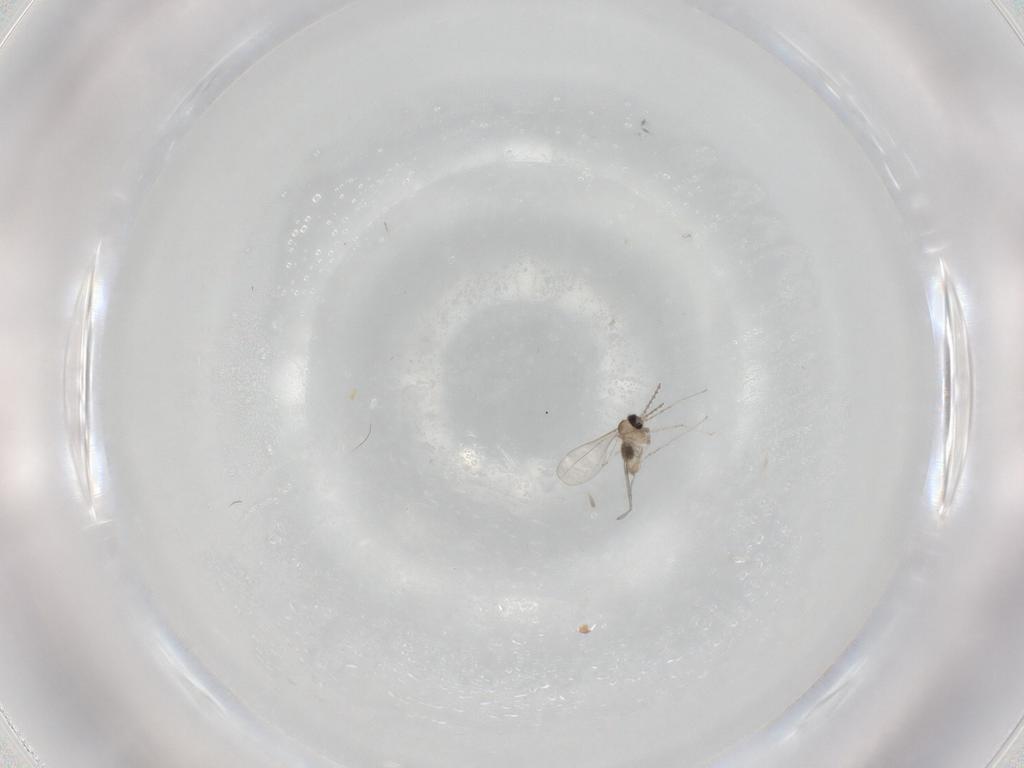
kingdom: Animalia
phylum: Arthropoda
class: Insecta
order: Diptera
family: Cecidomyiidae
